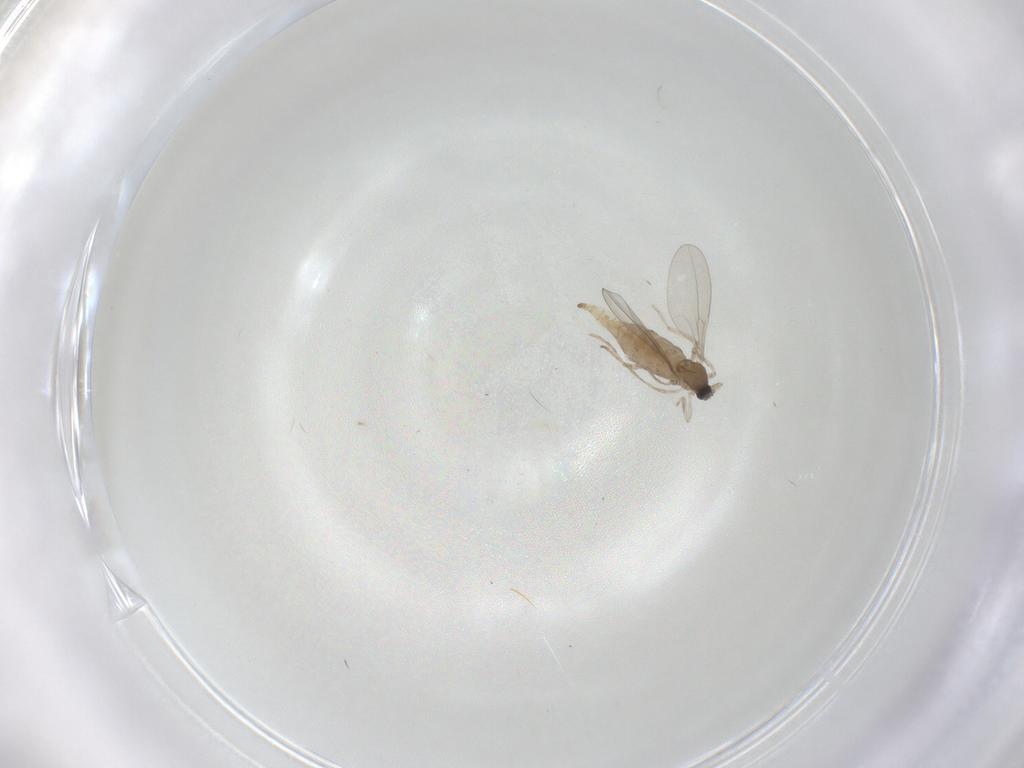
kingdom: Animalia
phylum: Arthropoda
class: Insecta
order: Diptera
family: Cecidomyiidae
